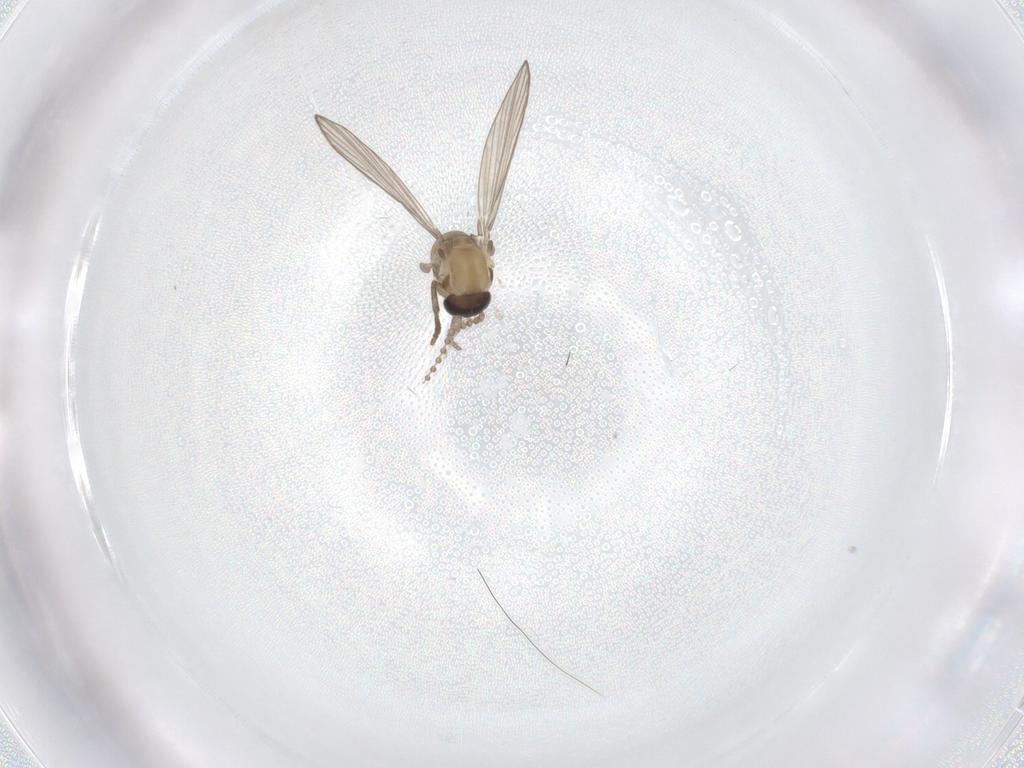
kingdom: Animalia
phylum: Arthropoda
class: Insecta
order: Diptera
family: Psychodidae
